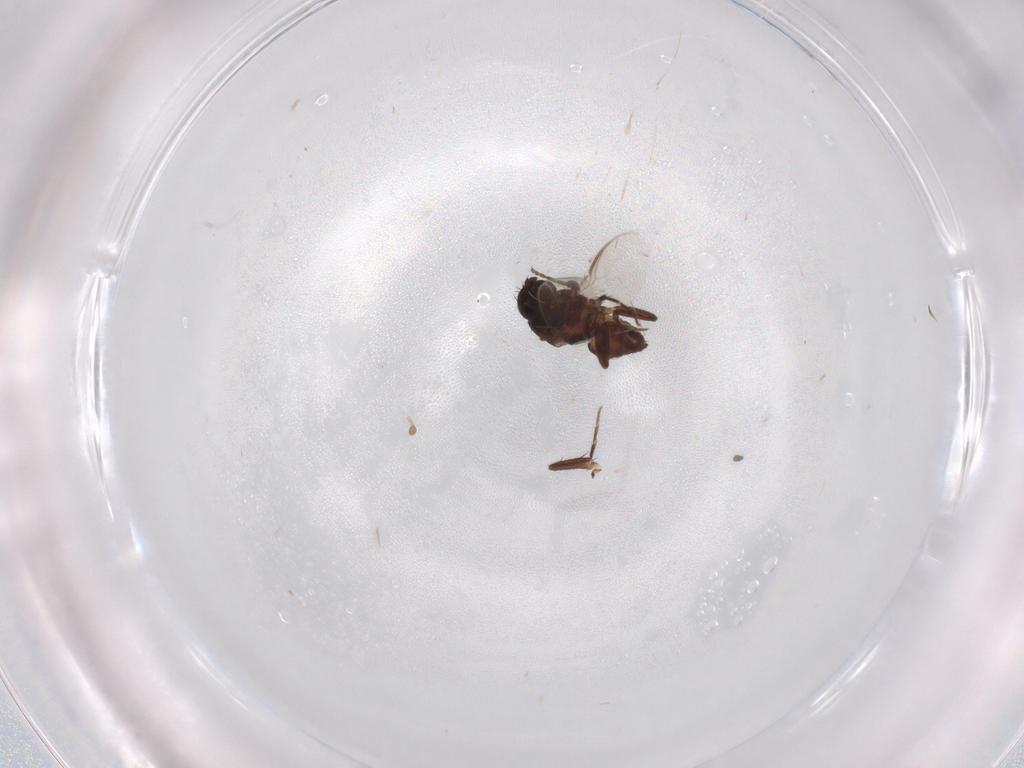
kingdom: Animalia
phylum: Arthropoda
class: Insecta
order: Diptera
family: Sphaeroceridae
